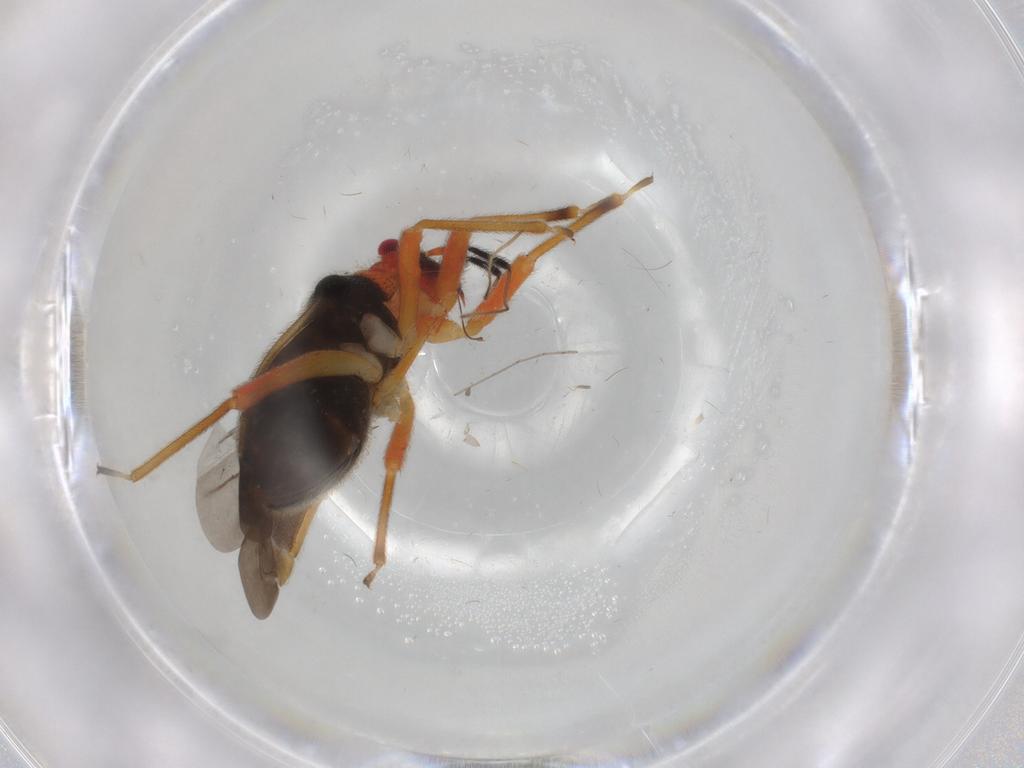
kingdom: Animalia
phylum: Arthropoda
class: Insecta
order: Hemiptera
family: Miridae
